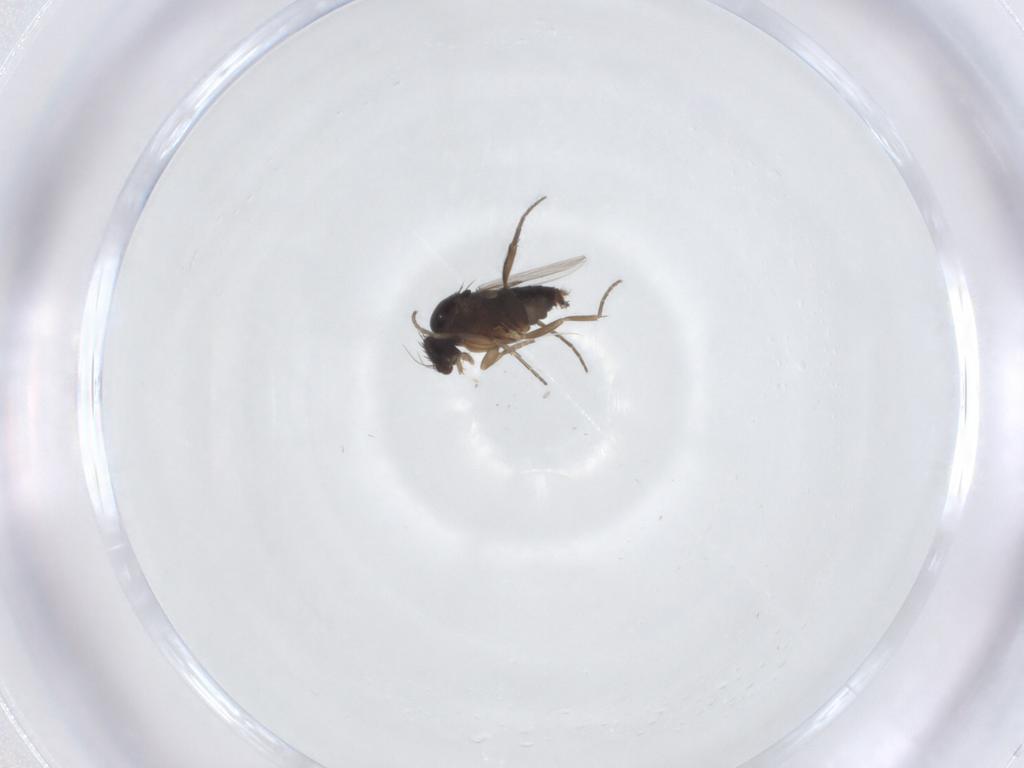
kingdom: Animalia
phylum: Arthropoda
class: Insecta
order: Diptera
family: Phoridae
